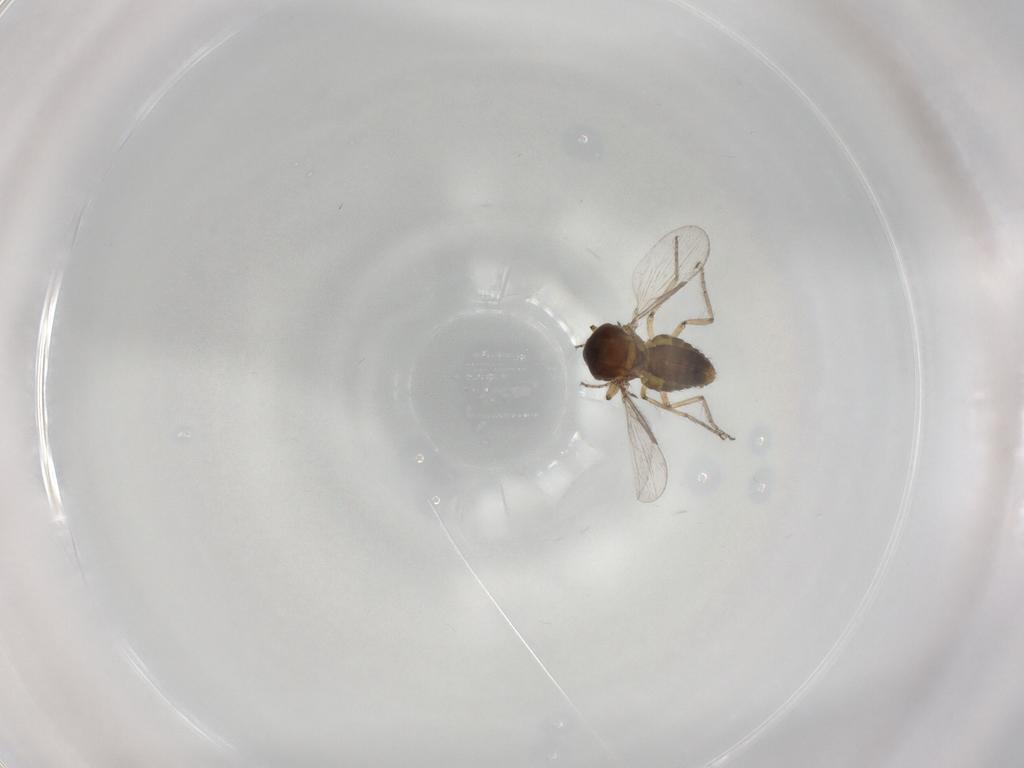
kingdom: Animalia
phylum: Arthropoda
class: Insecta
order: Diptera
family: Ceratopogonidae
